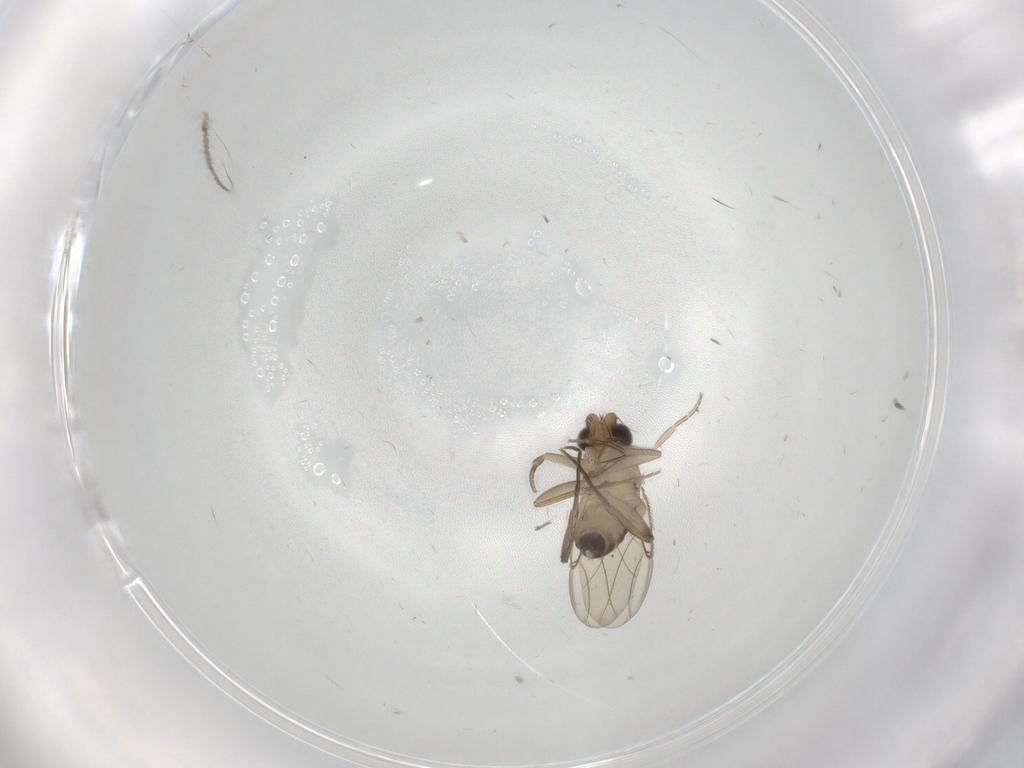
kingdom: Animalia
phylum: Arthropoda
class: Insecta
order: Diptera
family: Phoridae
